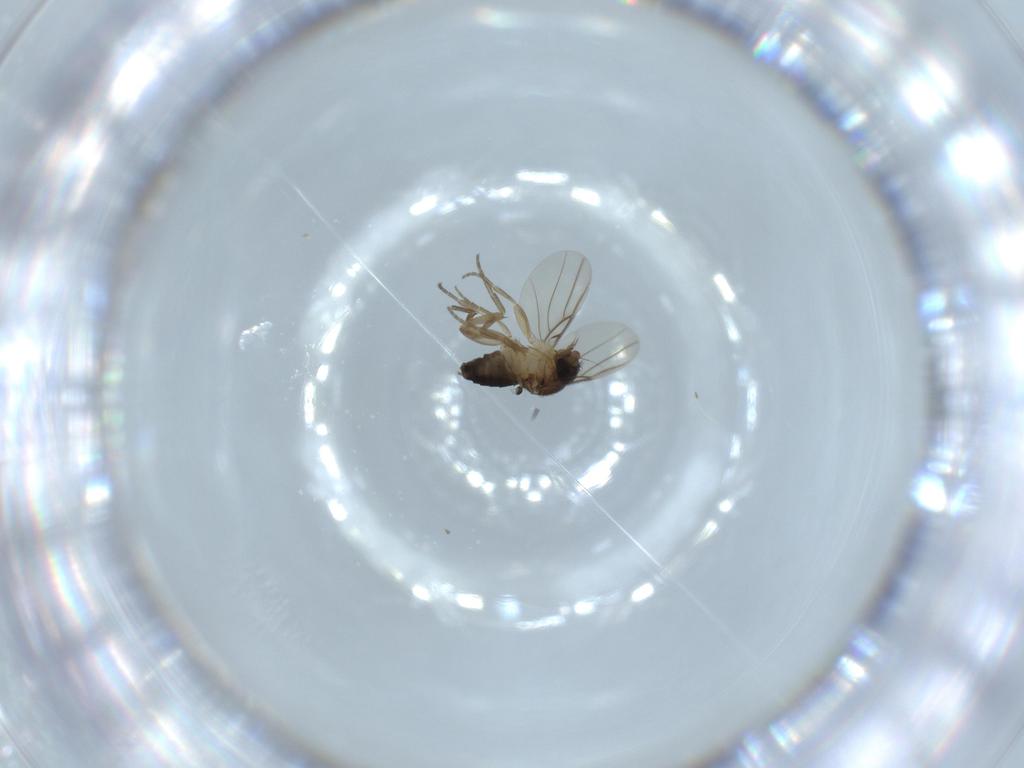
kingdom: Animalia
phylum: Arthropoda
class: Insecta
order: Diptera
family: Phoridae
